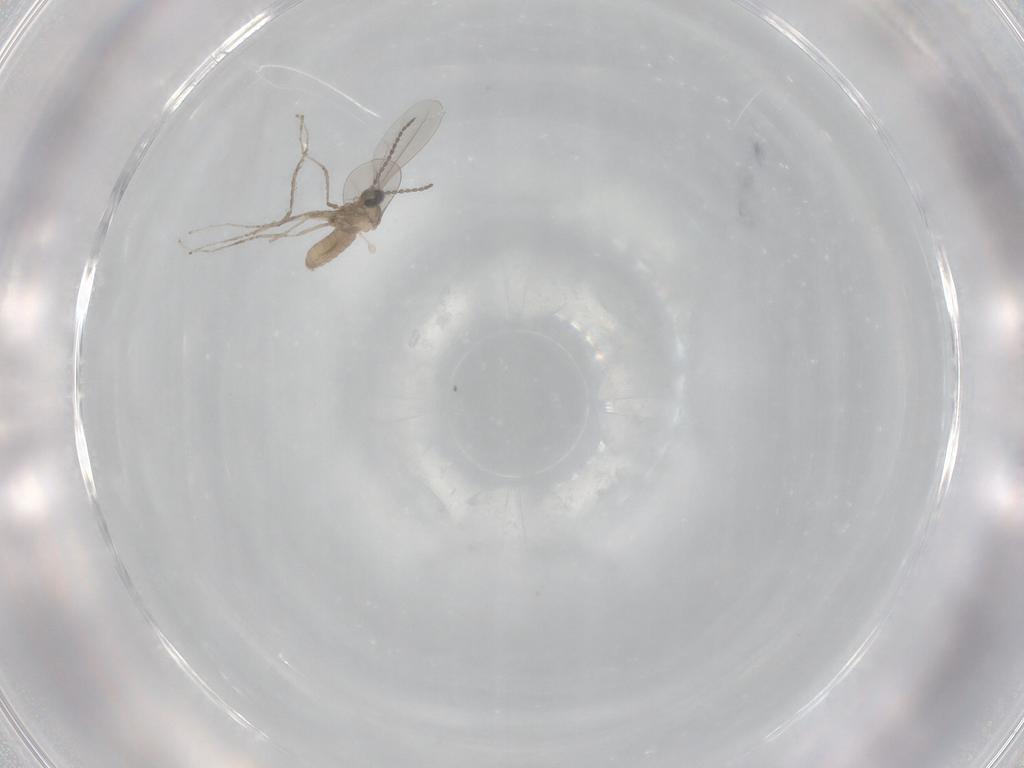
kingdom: Animalia
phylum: Arthropoda
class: Insecta
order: Diptera
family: Cecidomyiidae
